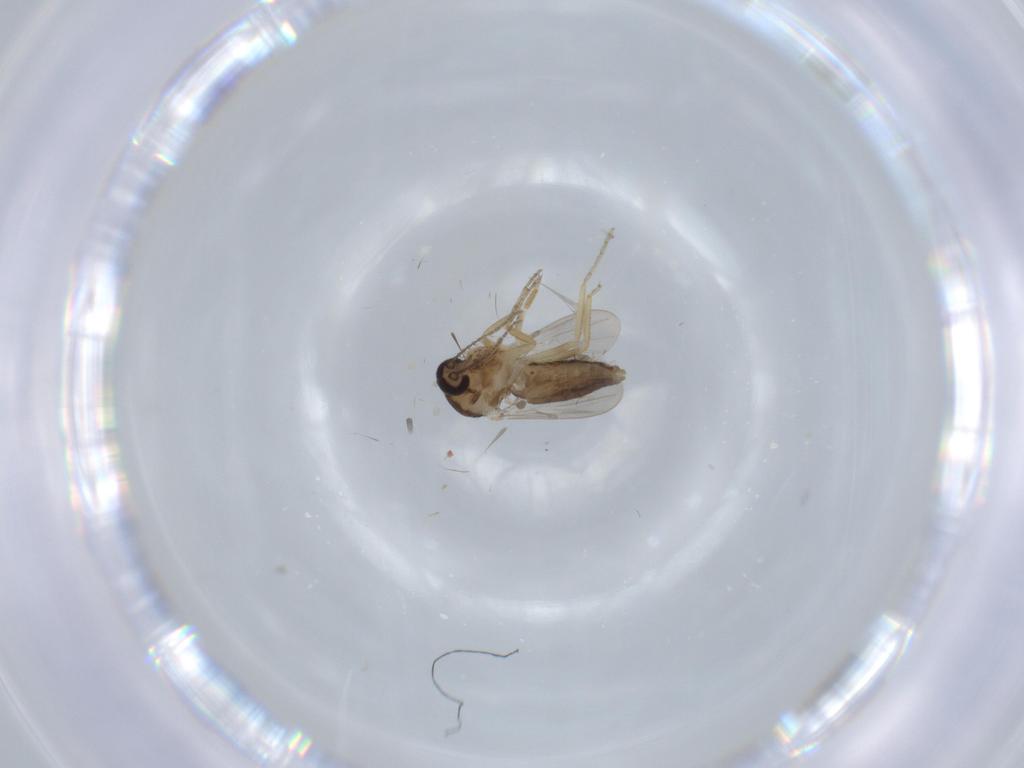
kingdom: Animalia
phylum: Arthropoda
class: Insecta
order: Diptera
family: Ceratopogonidae
